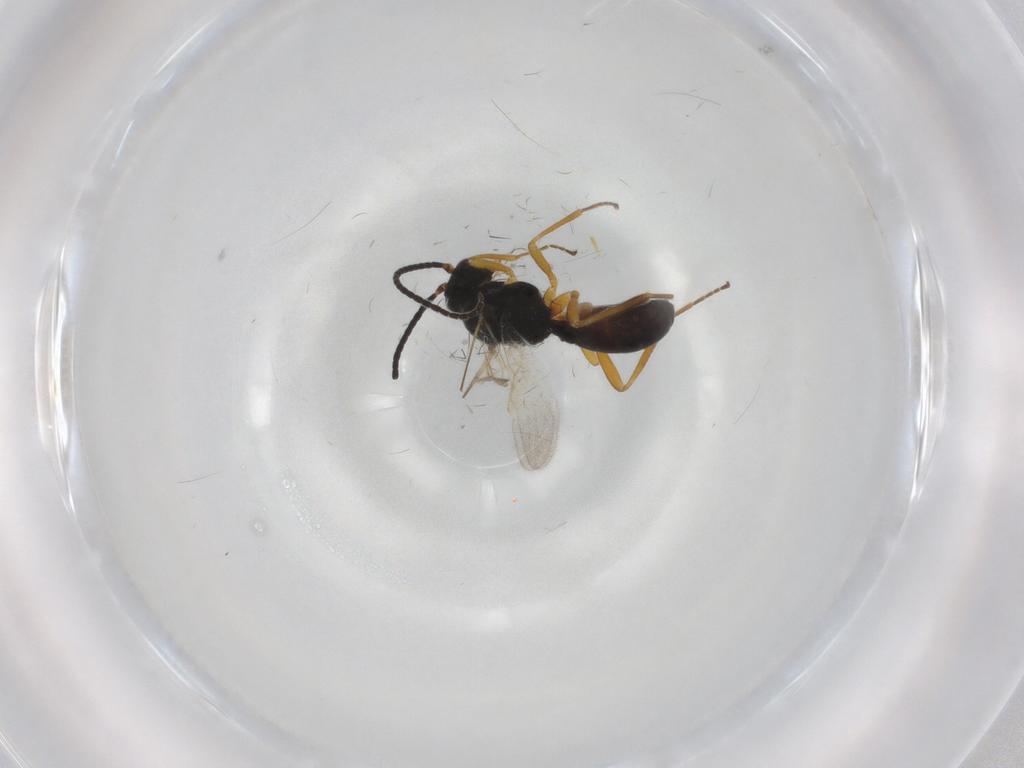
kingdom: Animalia
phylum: Arthropoda
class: Insecta
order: Hymenoptera
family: Braconidae
